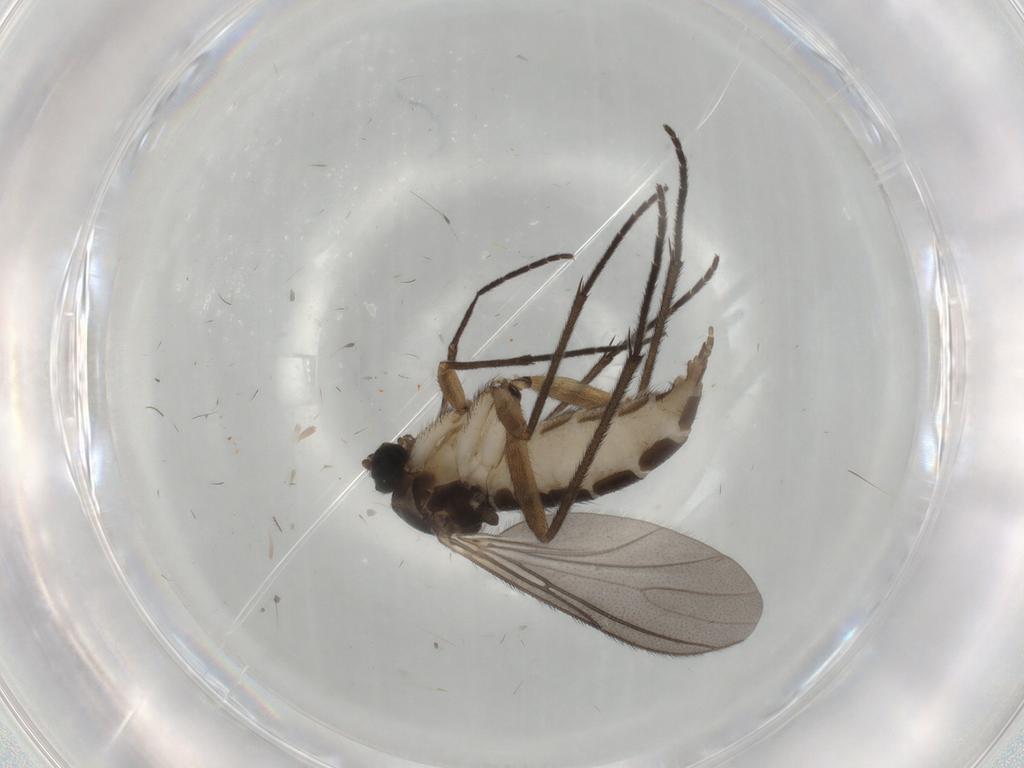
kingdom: Animalia
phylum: Arthropoda
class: Insecta
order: Diptera
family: Sciaridae
